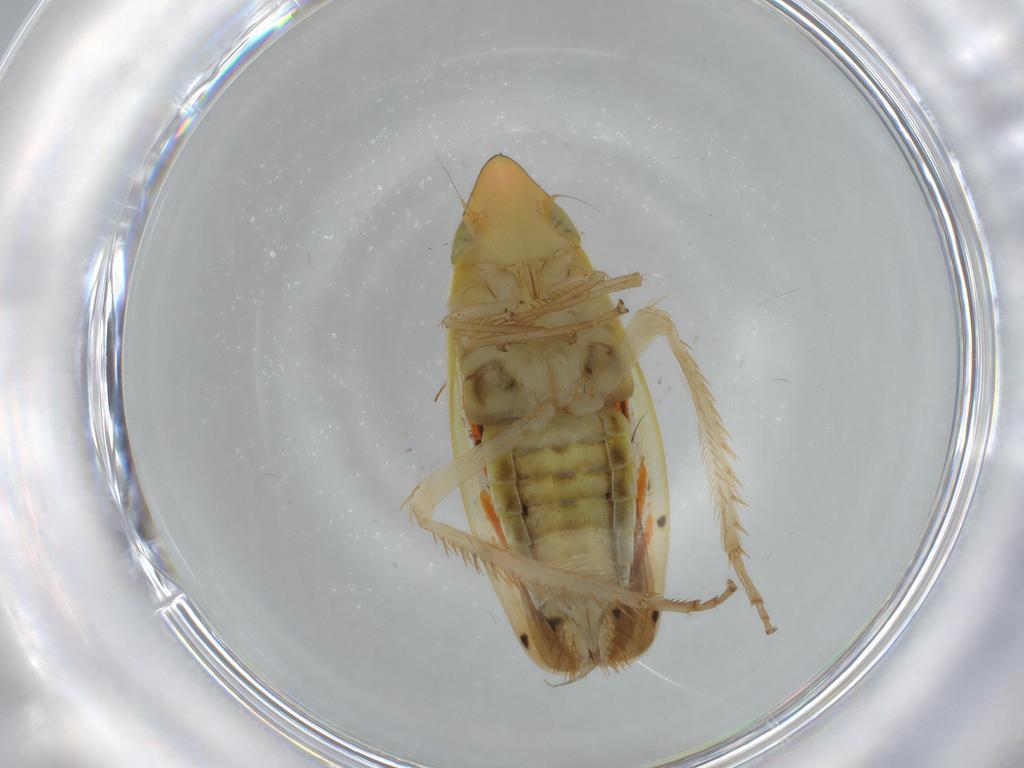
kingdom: Animalia
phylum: Arthropoda
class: Insecta
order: Hemiptera
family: Cicadellidae
